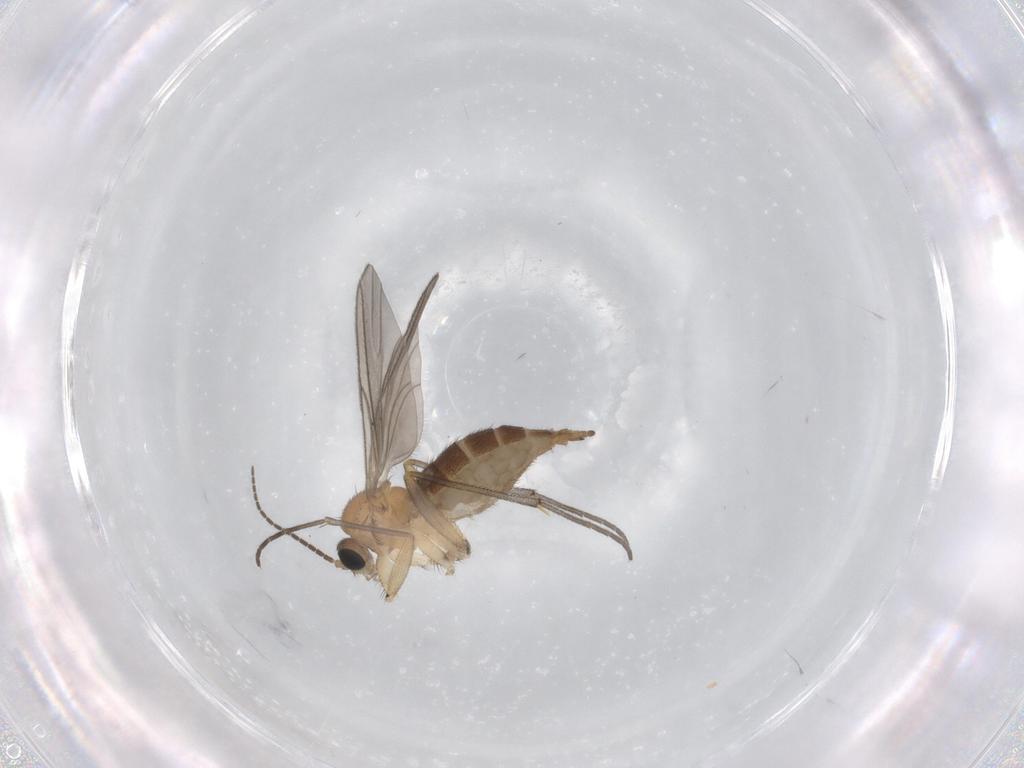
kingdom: Animalia
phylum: Arthropoda
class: Insecta
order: Diptera
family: Sciaridae
